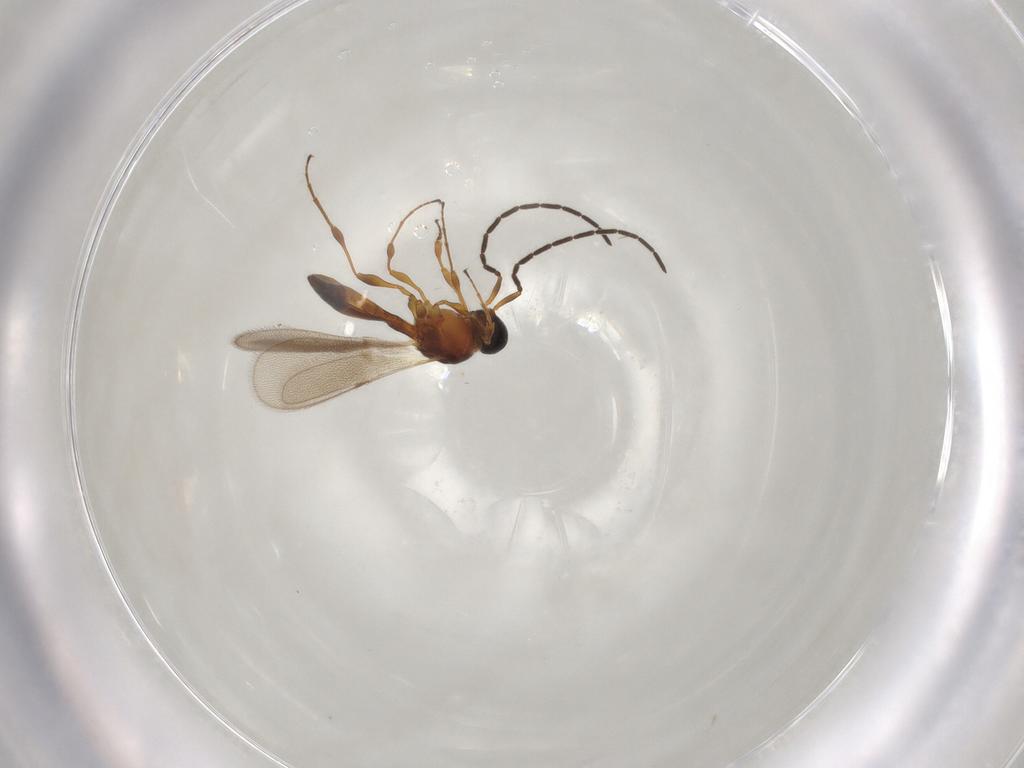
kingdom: Animalia
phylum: Arthropoda
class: Insecta
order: Hymenoptera
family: Scelionidae
